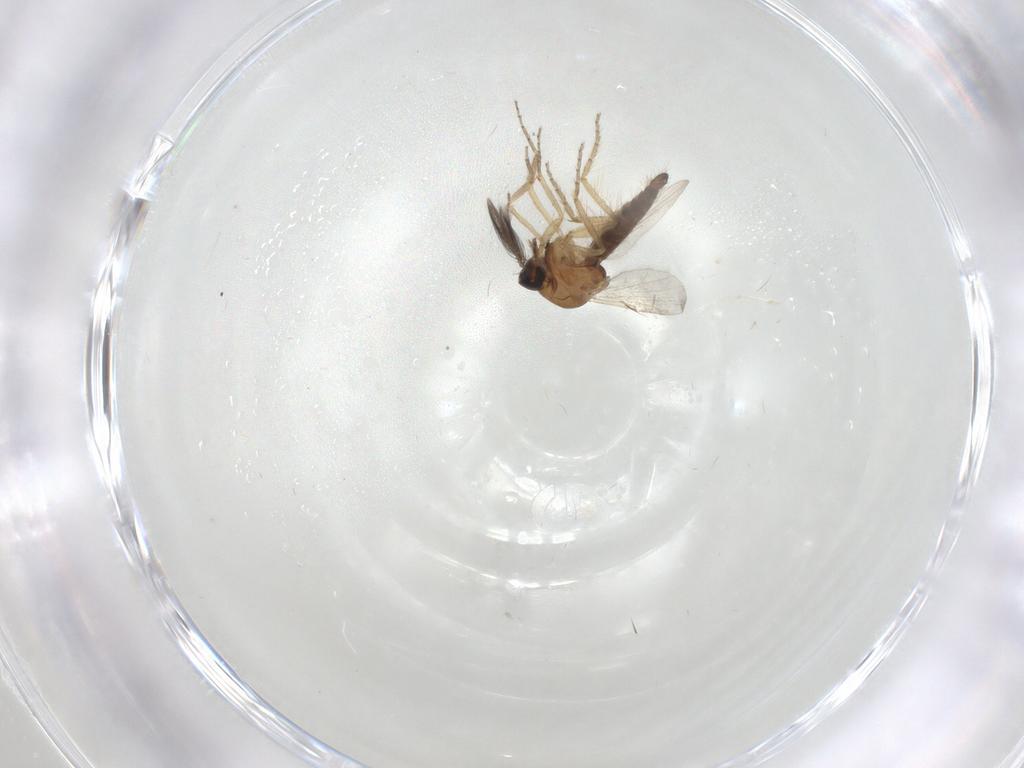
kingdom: Animalia
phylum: Arthropoda
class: Insecta
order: Diptera
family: Ceratopogonidae
